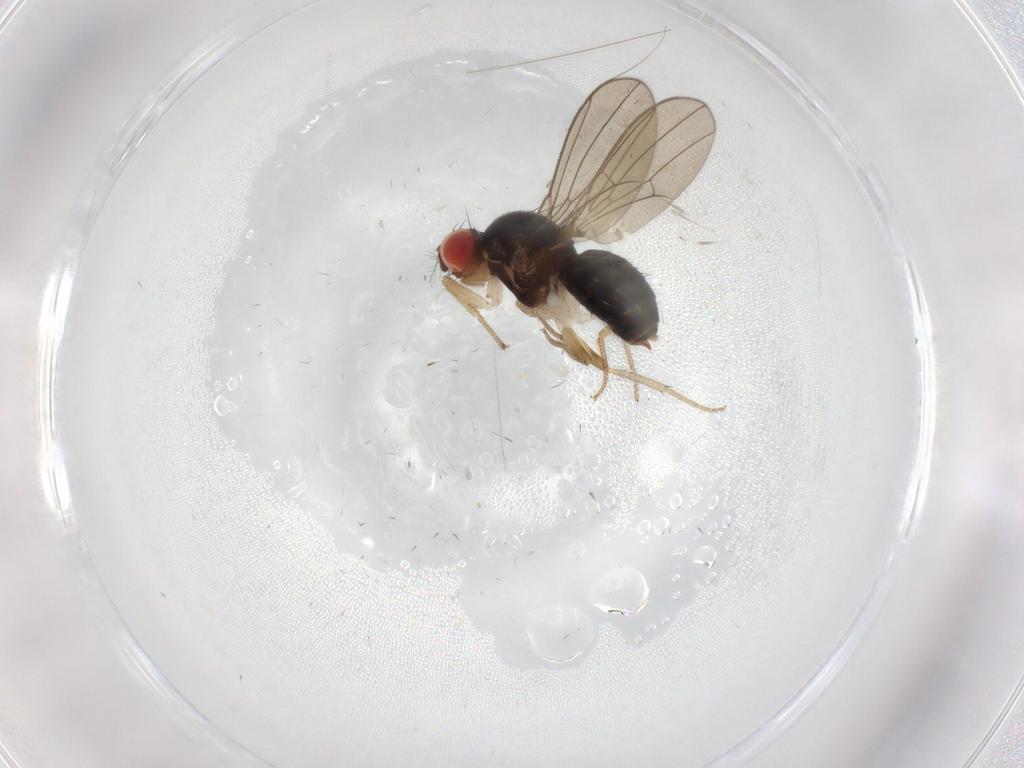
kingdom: Animalia
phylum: Arthropoda
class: Insecta
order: Diptera
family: Drosophilidae
